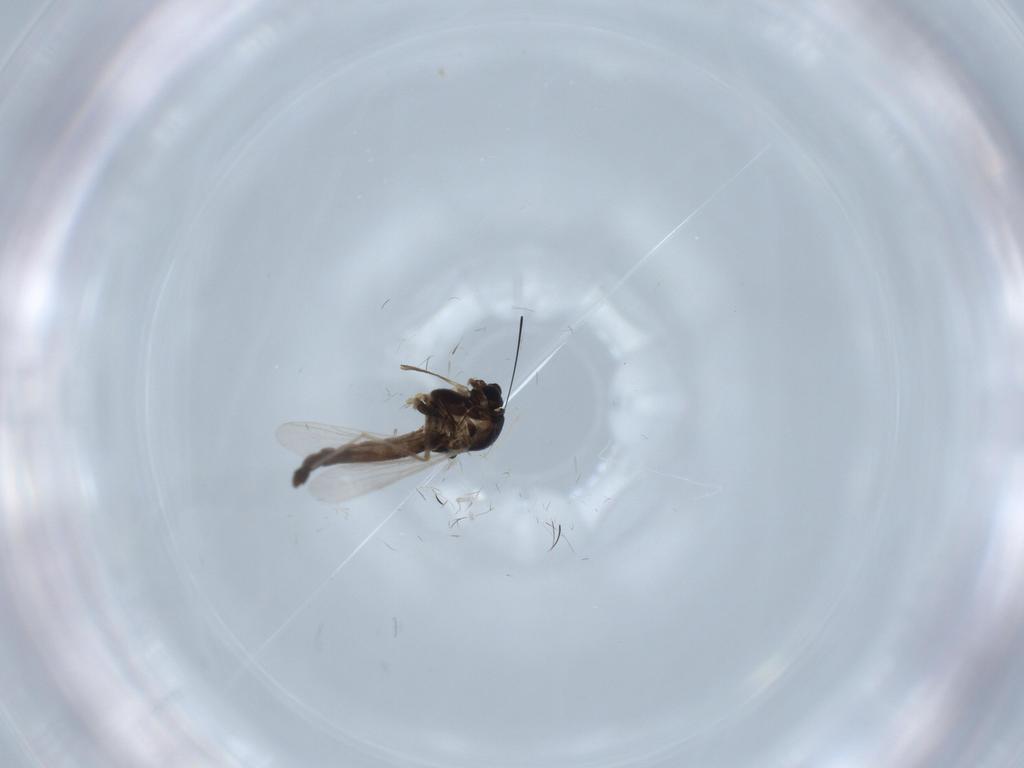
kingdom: Animalia
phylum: Arthropoda
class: Insecta
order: Diptera
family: Chironomidae
